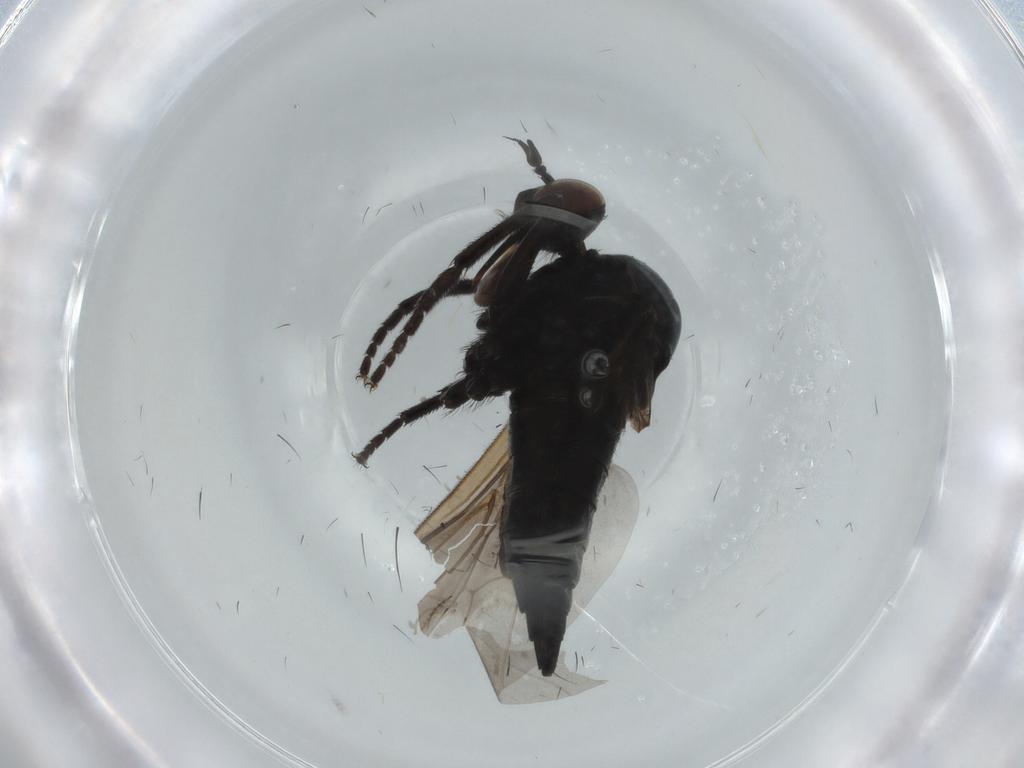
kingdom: Animalia
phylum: Arthropoda
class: Insecta
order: Diptera
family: Empididae
